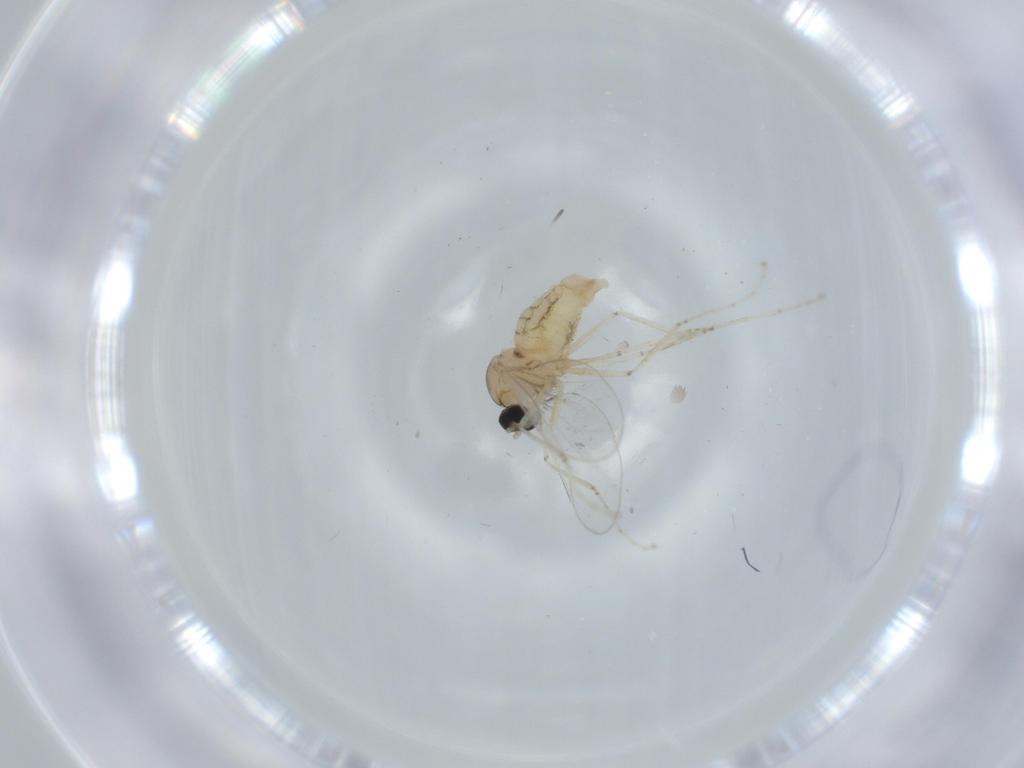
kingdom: Animalia
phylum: Arthropoda
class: Insecta
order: Diptera
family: Cecidomyiidae
